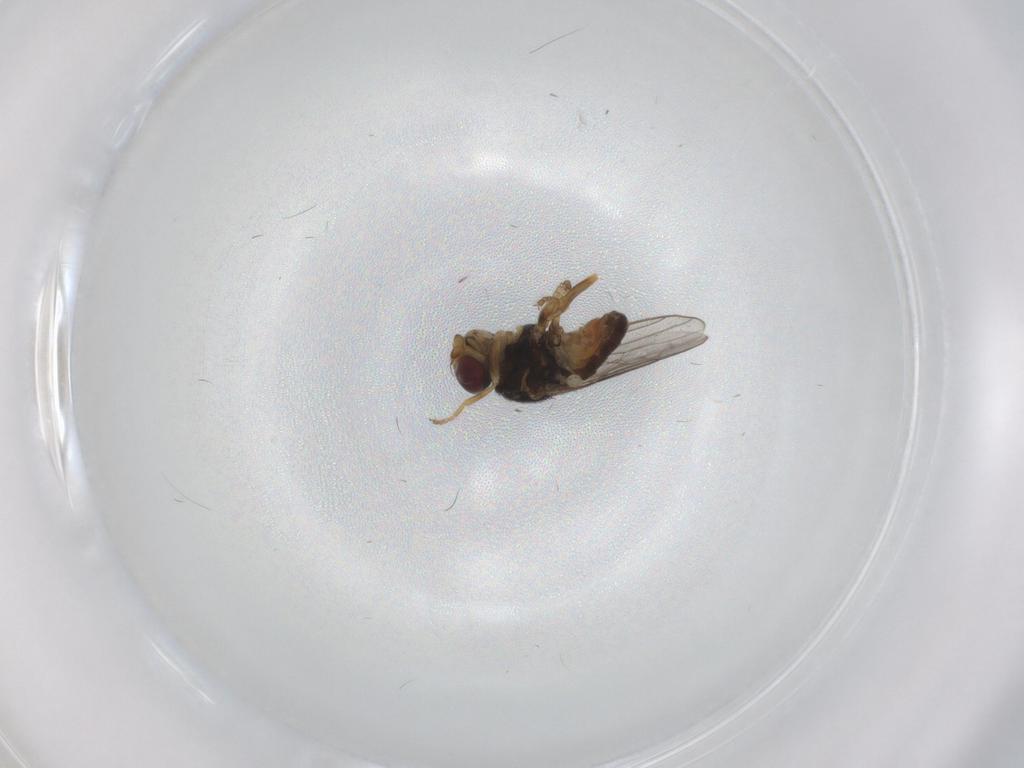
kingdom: Animalia
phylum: Arthropoda
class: Insecta
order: Diptera
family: Chloropidae
